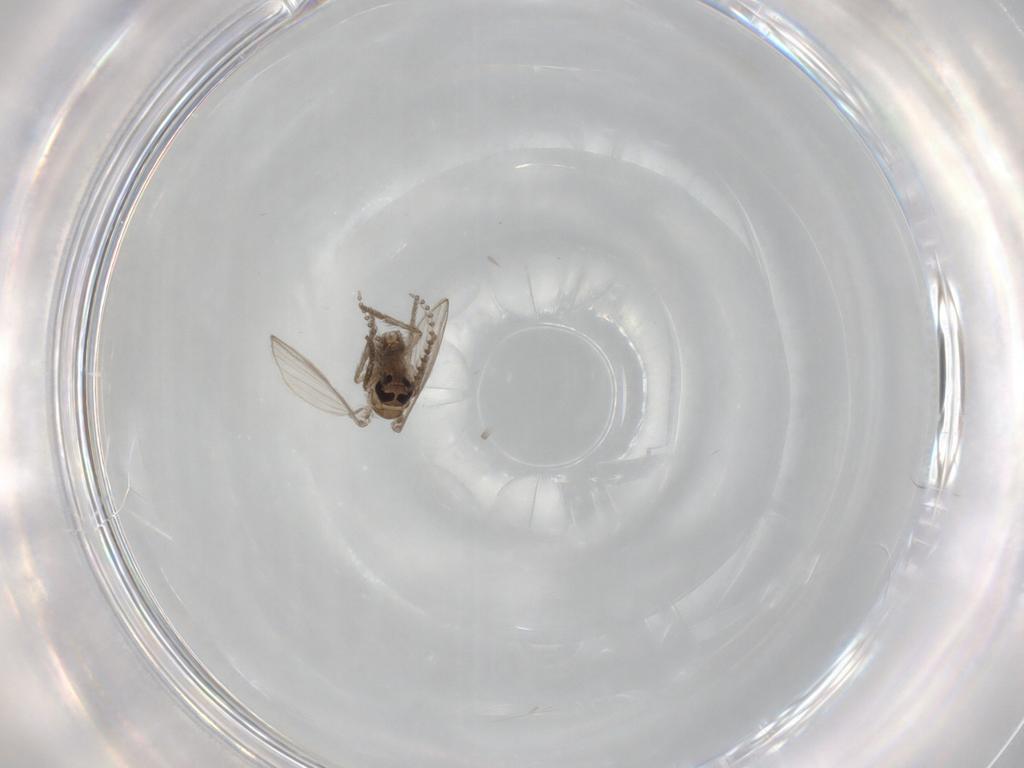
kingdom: Animalia
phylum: Arthropoda
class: Insecta
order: Diptera
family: Psychodidae
